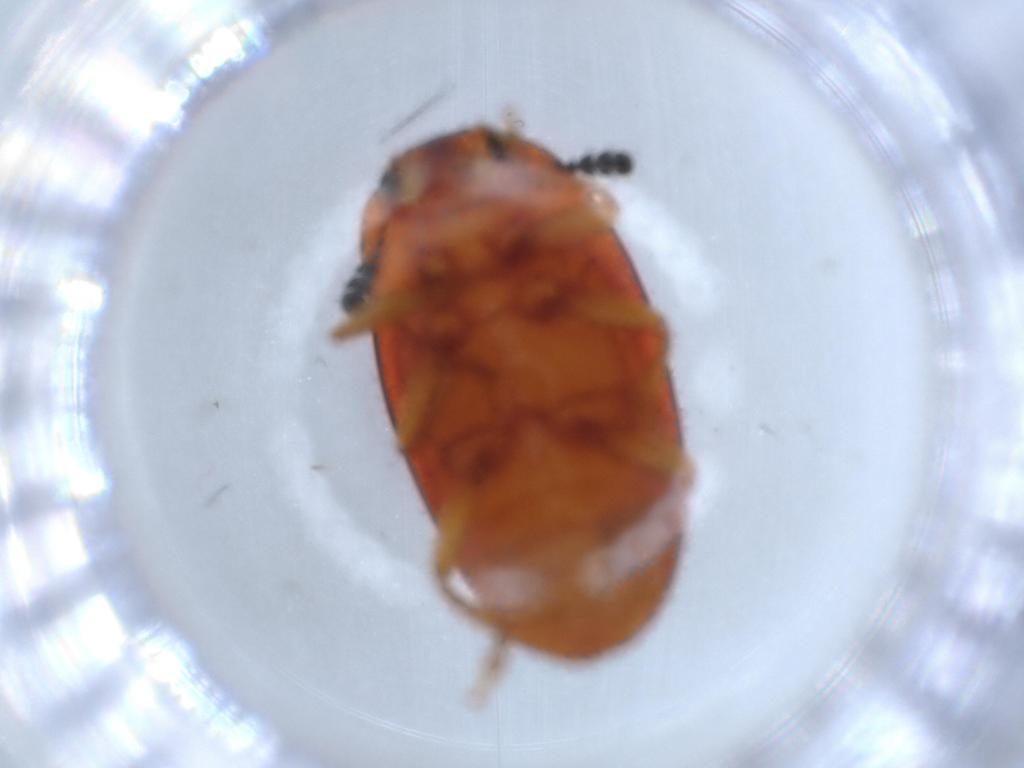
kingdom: Animalia
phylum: Arthropoda
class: Insecta
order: Coleoptera
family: Erotylidae
